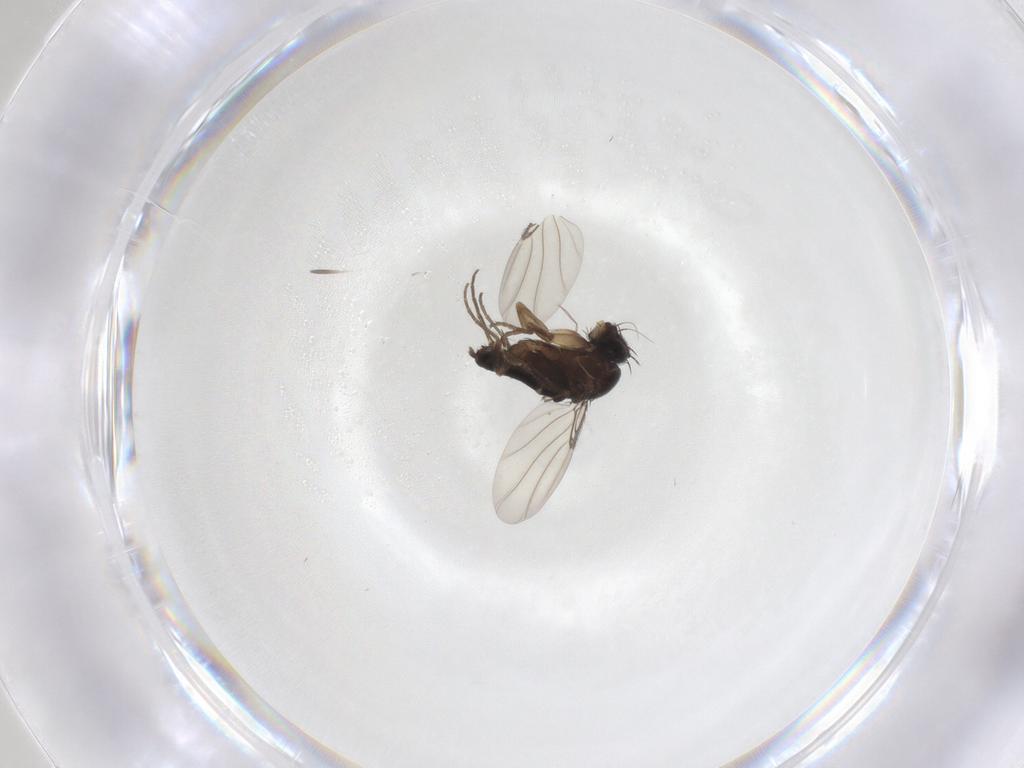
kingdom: Animalia
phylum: Arthropoda
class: Insecta
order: Diptera
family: Phoridae
